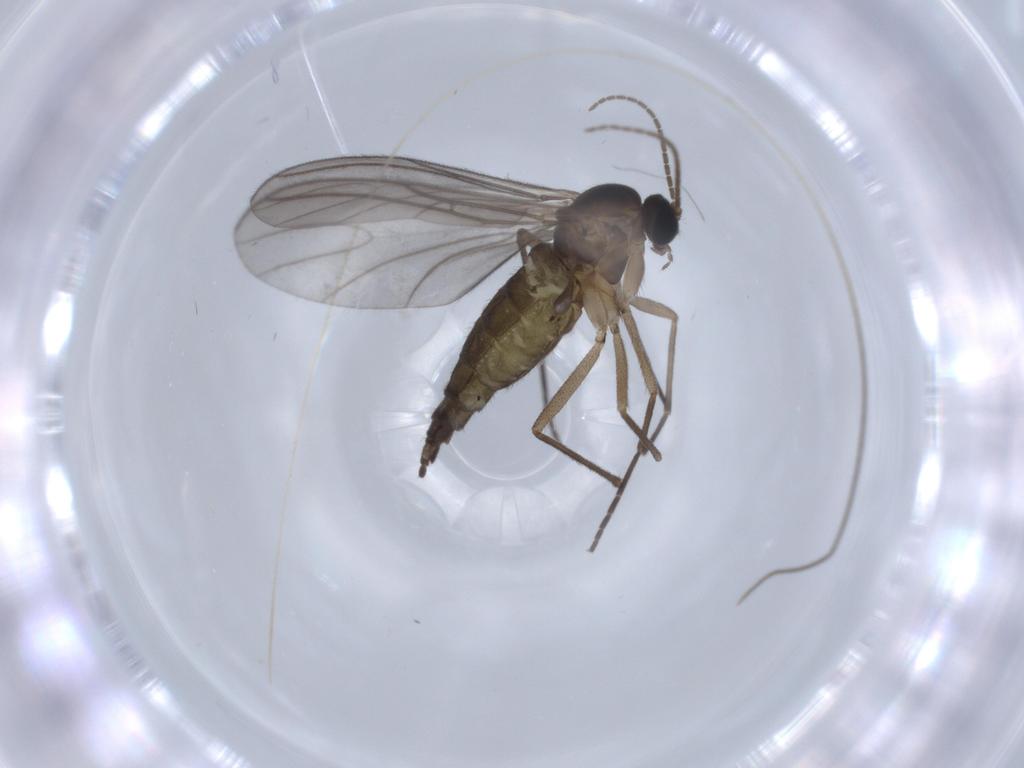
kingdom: Animalia
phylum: Arthropoda
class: Insecta
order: Diptera
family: Sciaridae
